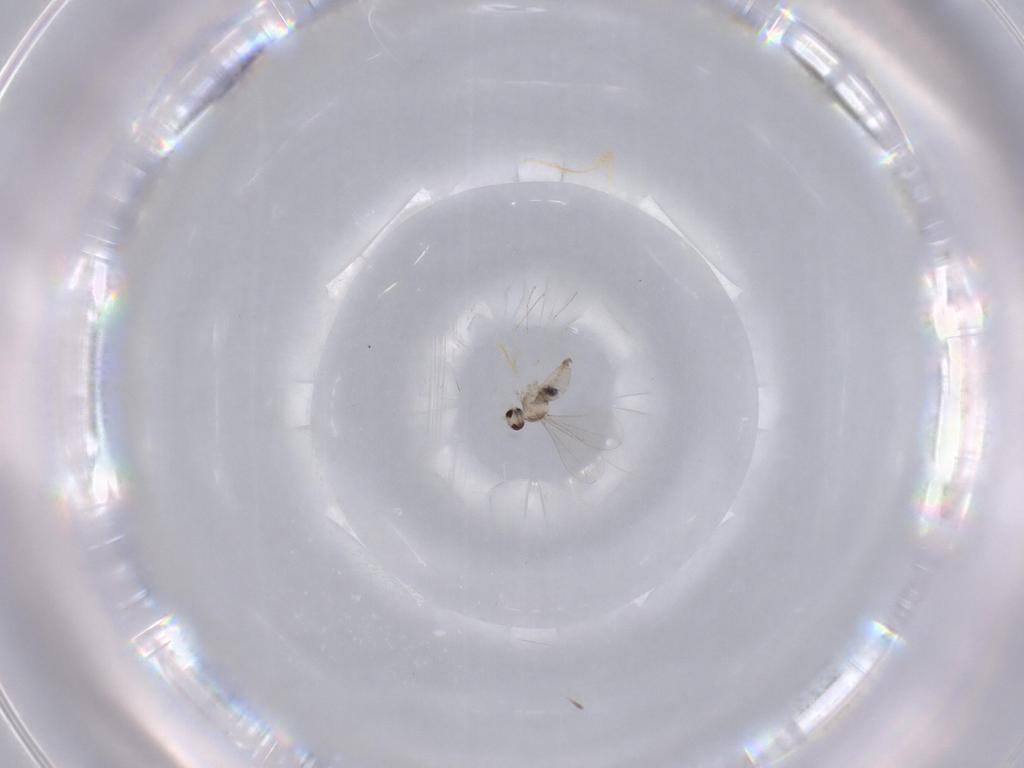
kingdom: Animalia
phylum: Arthropoda
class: Insecta
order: Diptera
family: Cecidomyiidae
